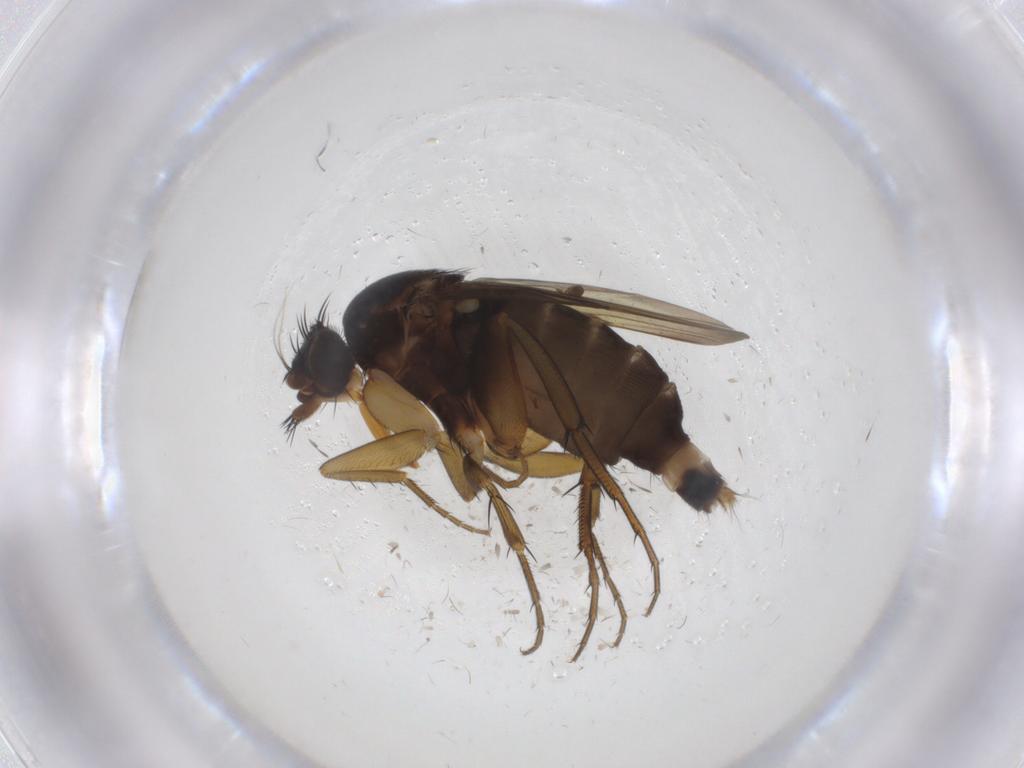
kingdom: Animalia
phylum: Arthropoda
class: Insecta
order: Diptera
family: Phoridae
